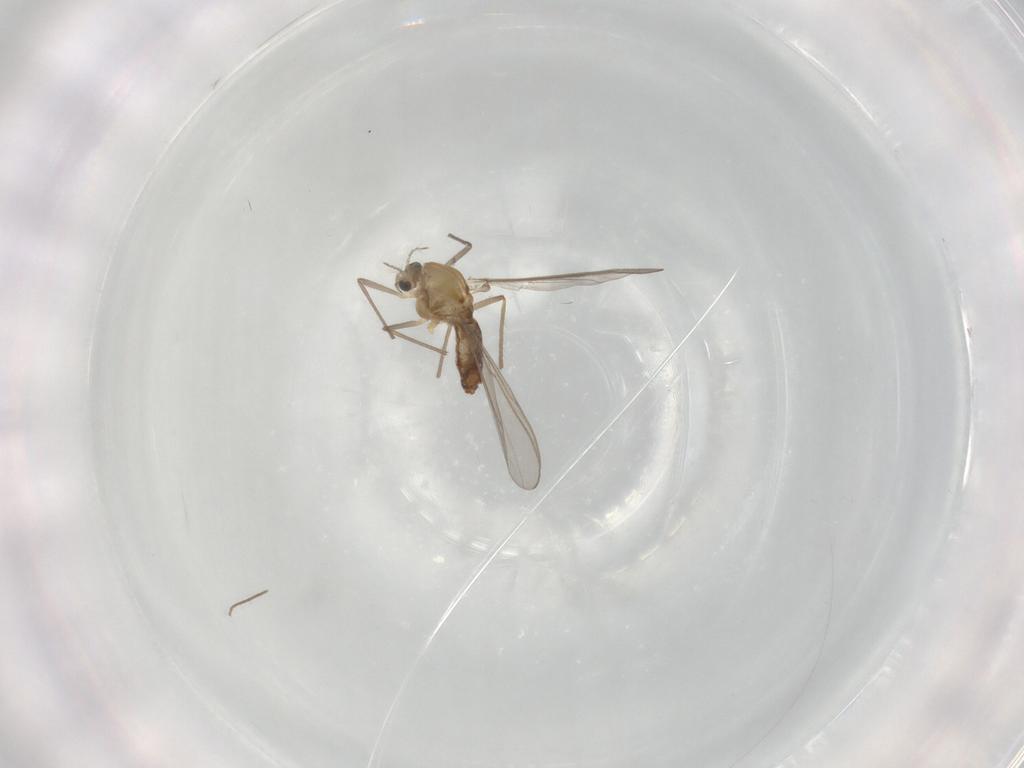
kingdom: Animalia
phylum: Arthropoda
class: Insecta
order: Diptera
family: Chironomidae
